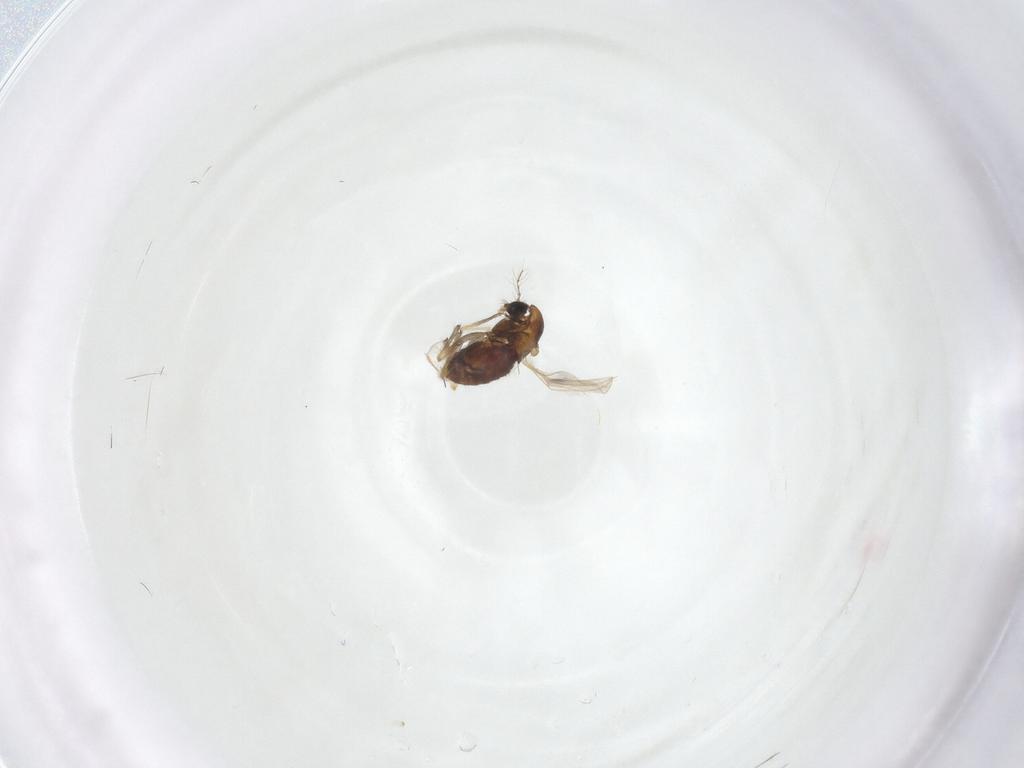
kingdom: Animalia
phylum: Arthropoda
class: Insecta
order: Diptera
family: Chironomidae
